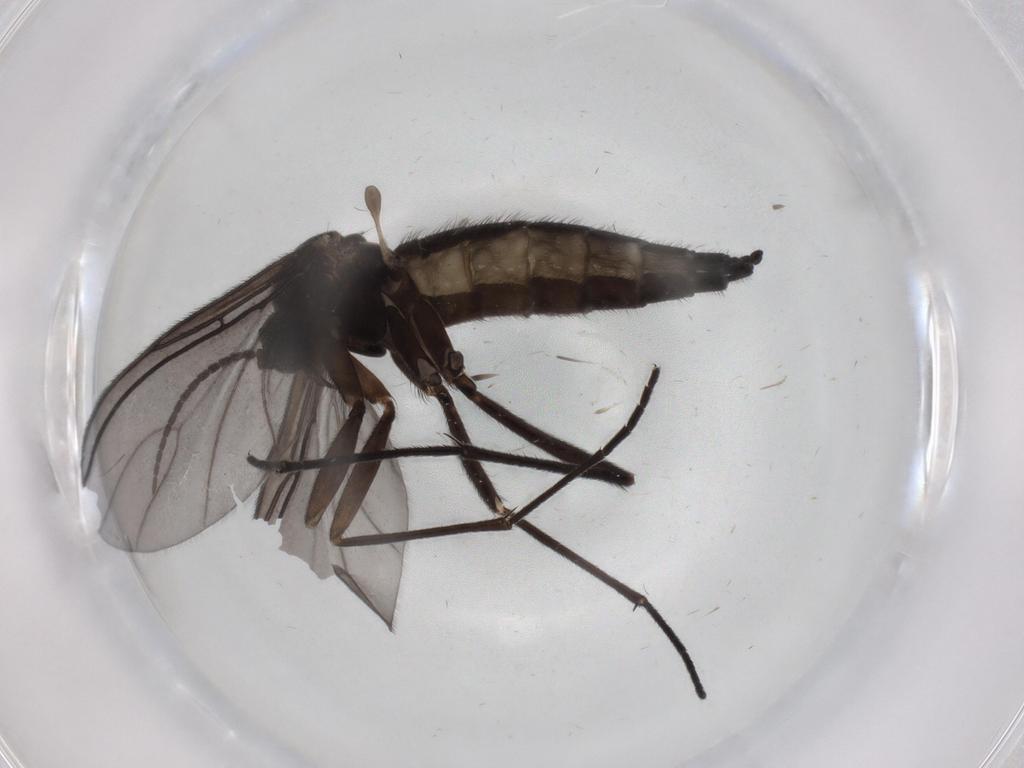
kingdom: Animalia
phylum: Arthropoda
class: Insecta
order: Diptera
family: Sciaridae
